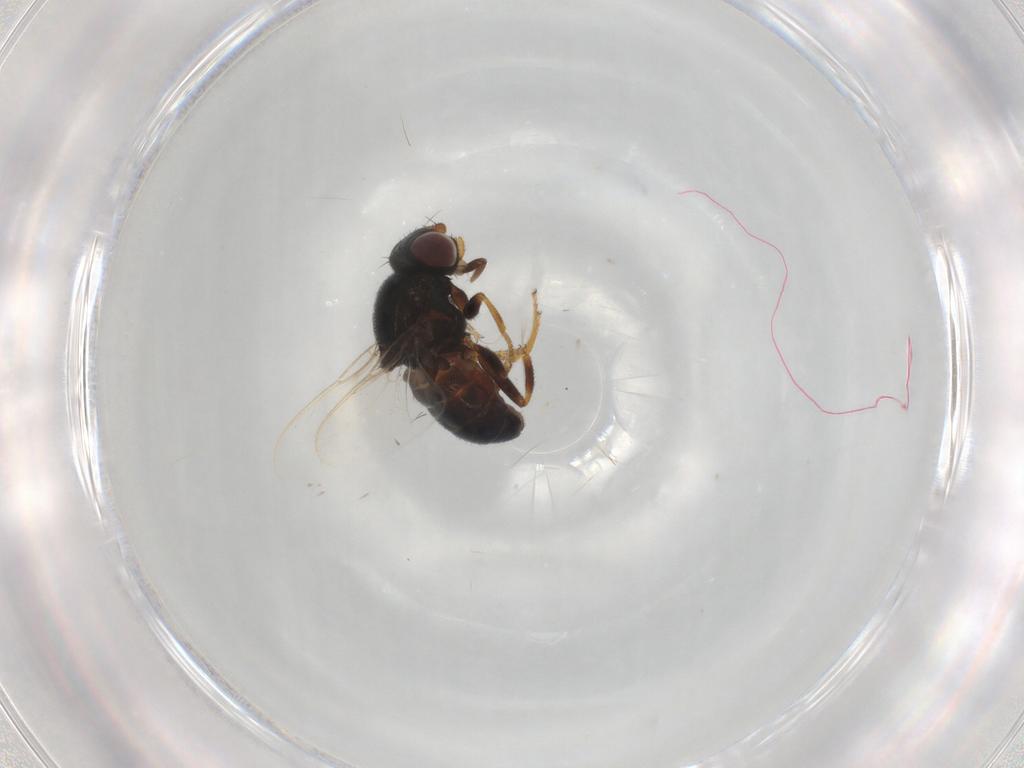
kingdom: Animalia
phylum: Arthropoda
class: Insecta
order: Diptera
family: Chloropidae
